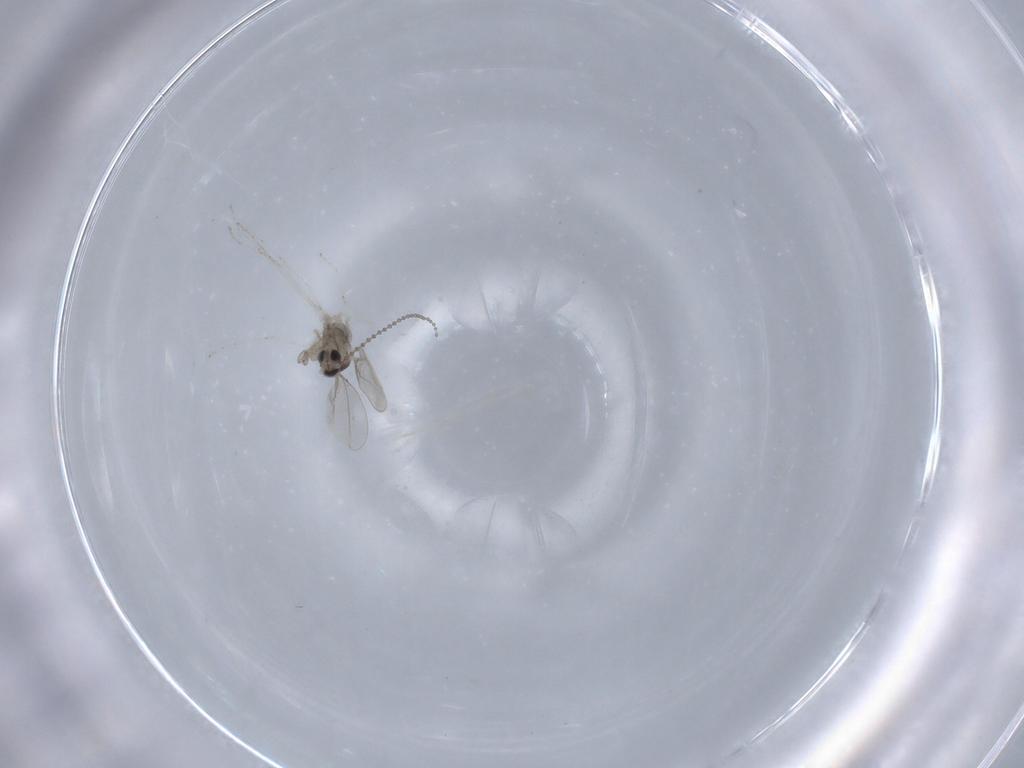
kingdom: Animalia
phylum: Arthropoda
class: Insecta
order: Diptera
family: Cecidomyiidae
